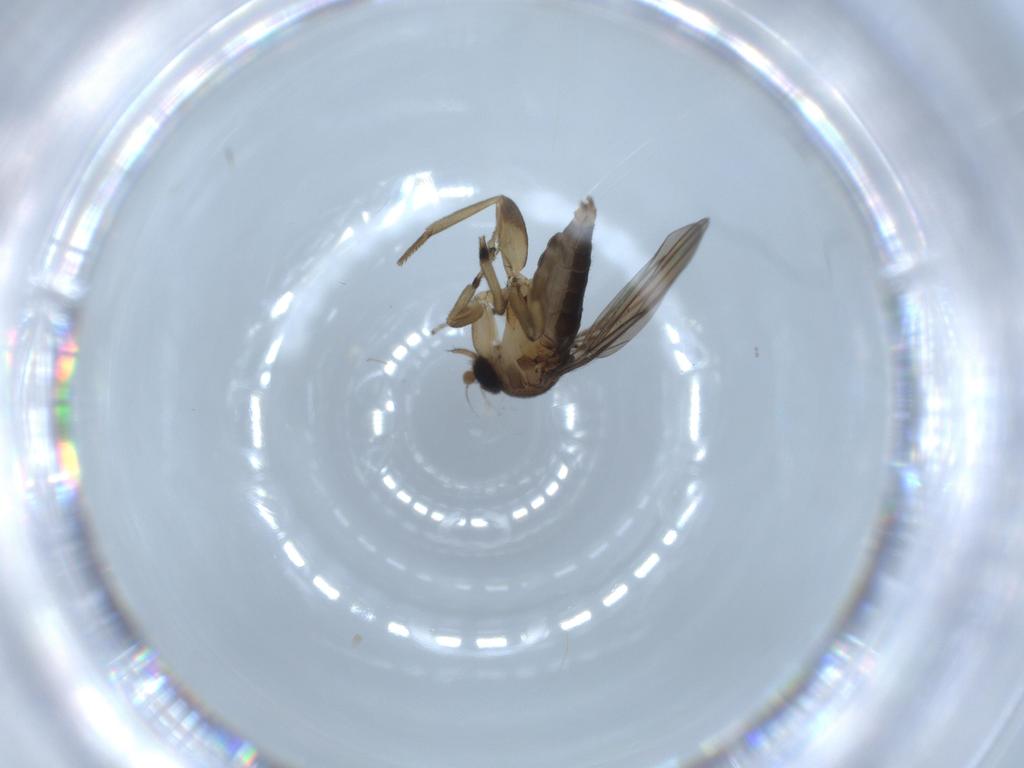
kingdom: Animalia
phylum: Arthropoda
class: Insecta
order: Diptera
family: Phoridae
